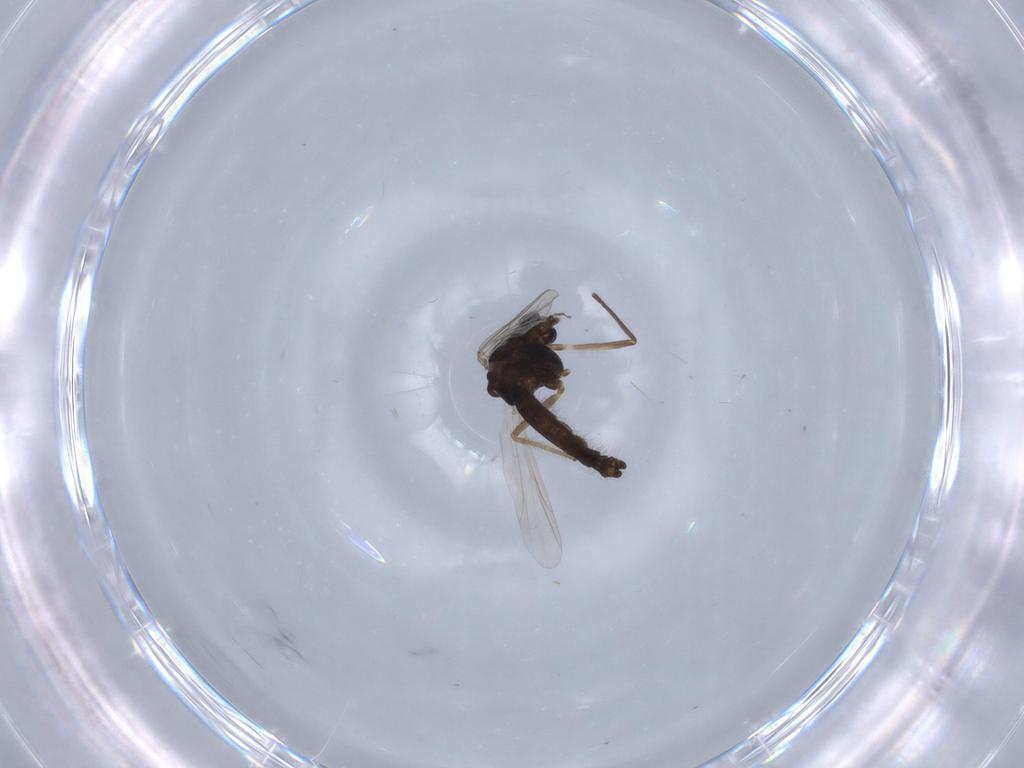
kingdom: Animalia
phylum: Arthropoda
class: Insecta
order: Diptera
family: Chironomidae
